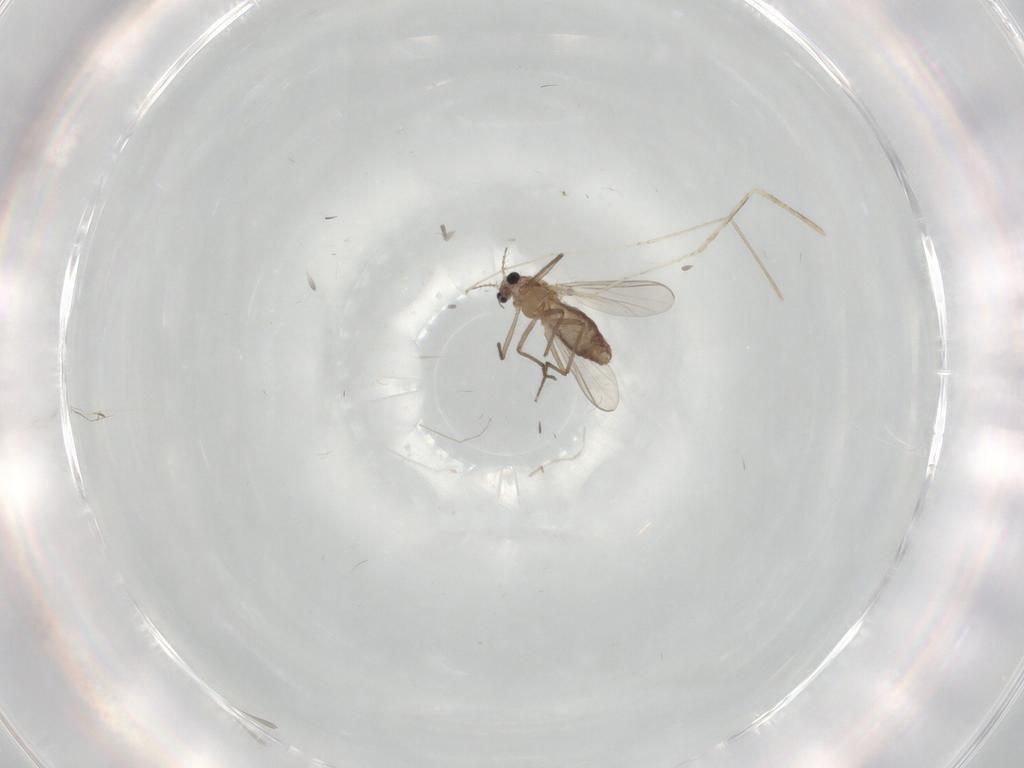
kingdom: Animalia
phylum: Arthropoda
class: Insecta
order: Diptera
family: Chironomidae
